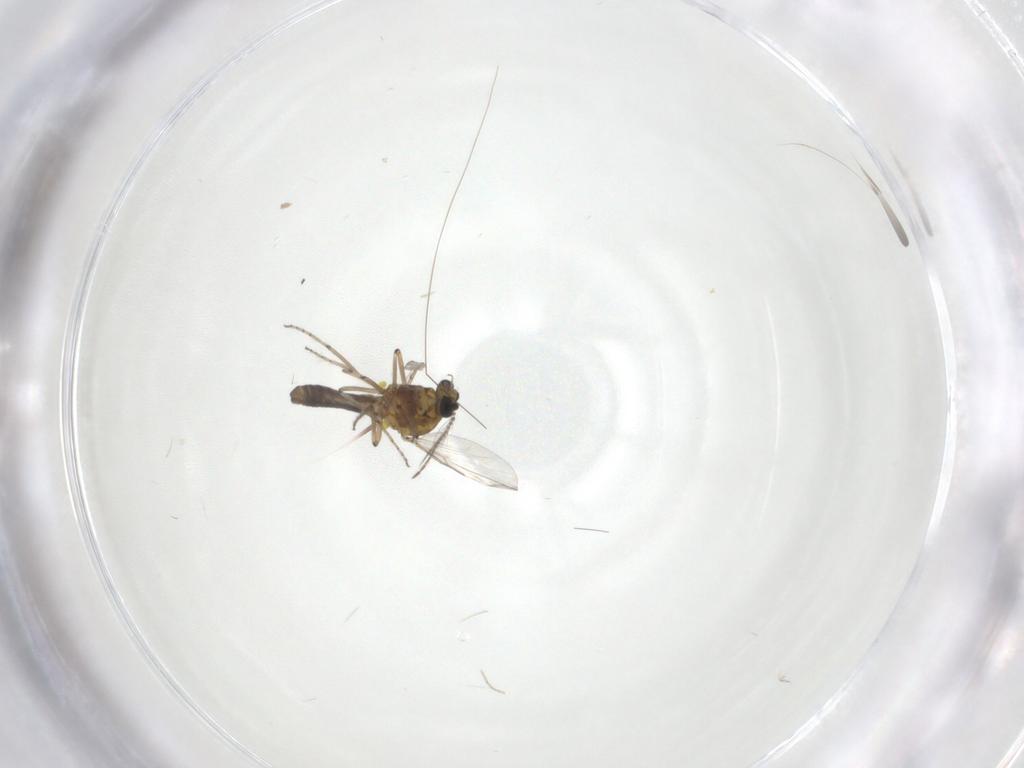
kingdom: Animalia
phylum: Arthropoda
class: Insecta
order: Diptera
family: Ceratopogonidae
